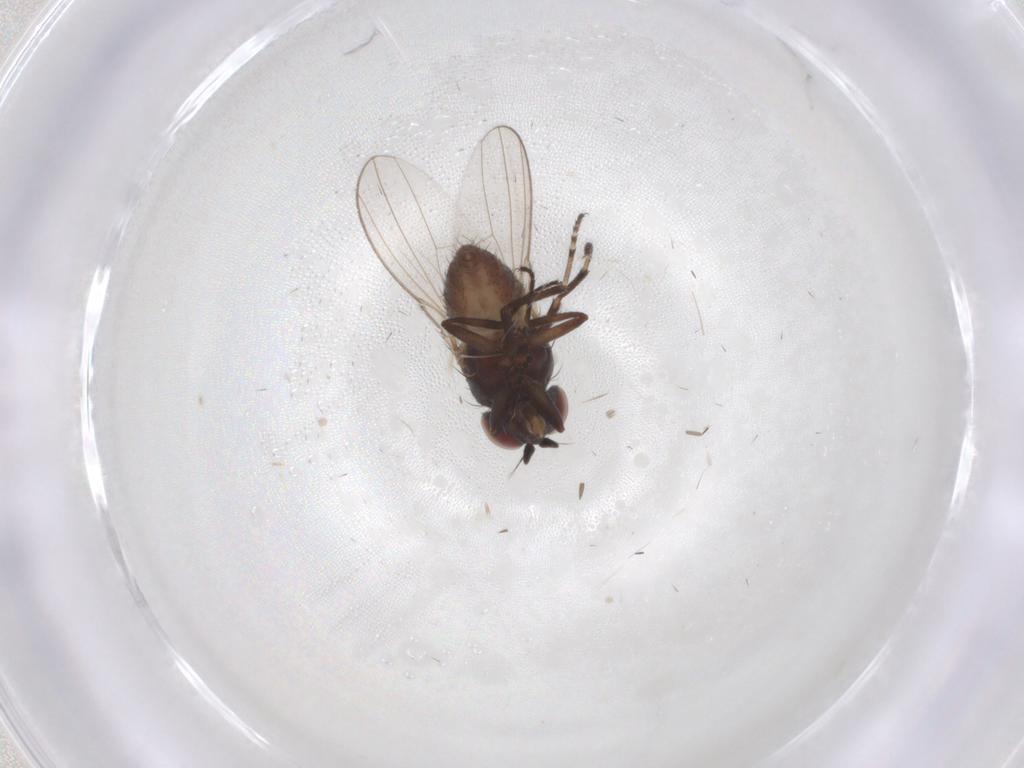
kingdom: Animalia
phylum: Arthropoda
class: Insecta
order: Diptera
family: Ephydridae
